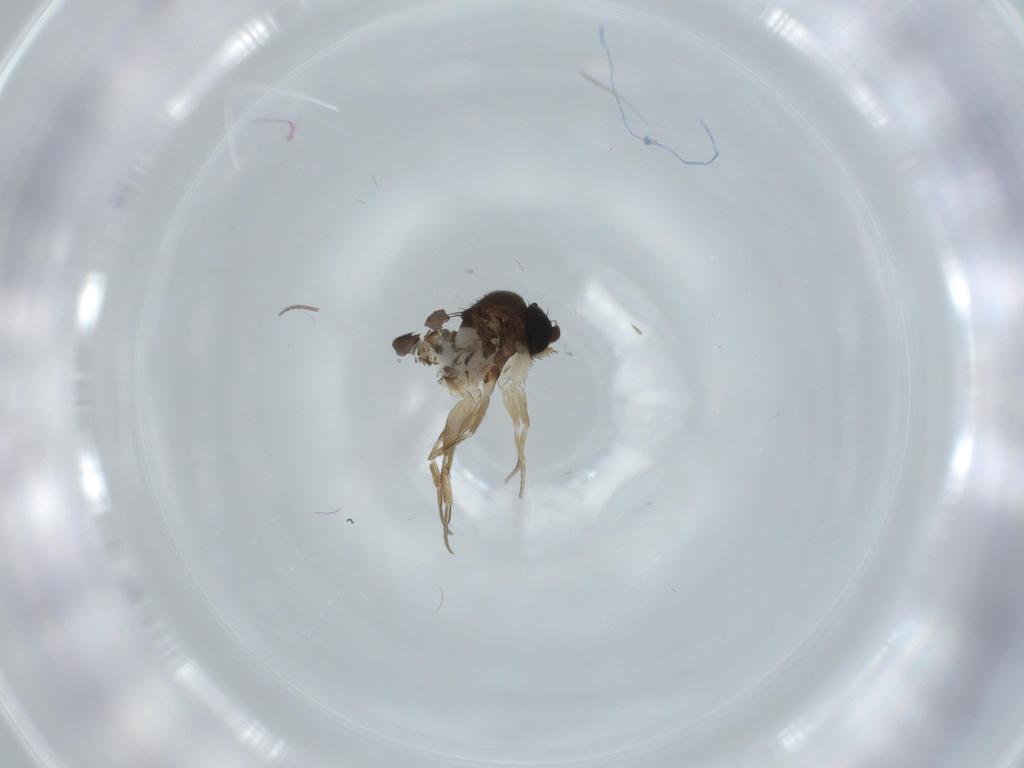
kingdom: Animalia
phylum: Arthropoda
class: Insecta
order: Diptera
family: Phoridae
